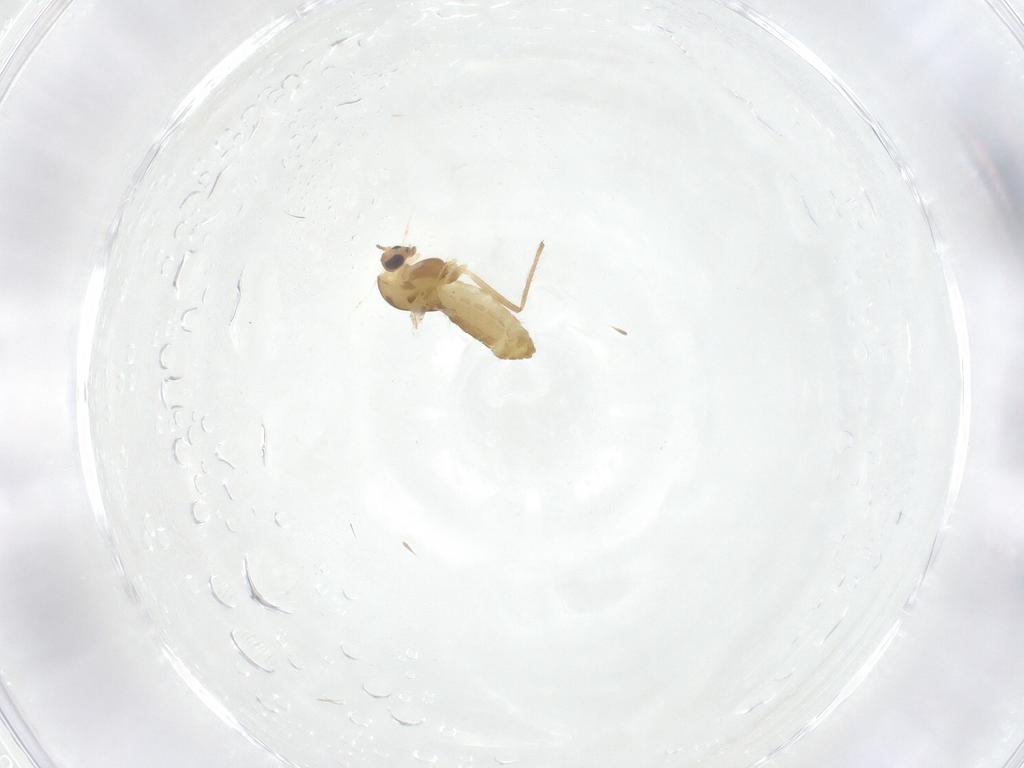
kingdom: Animalia
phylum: Arthropoda
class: Insecta
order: Diptera
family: Chironomidae
